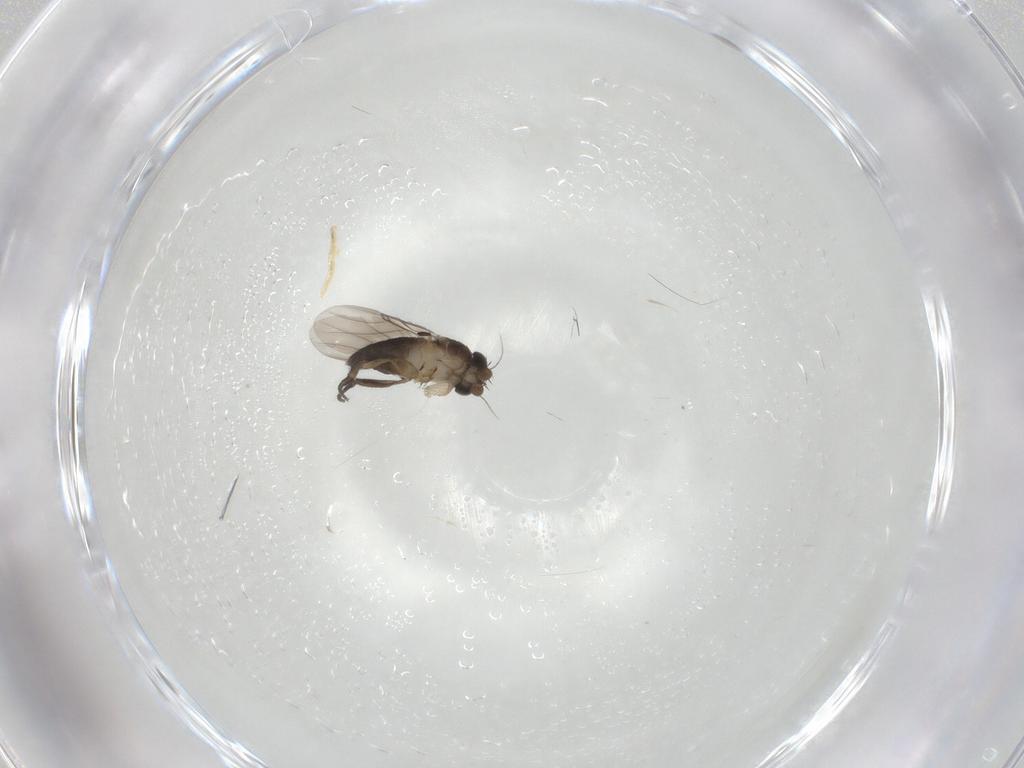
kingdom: Animalia
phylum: Arthropoda
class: Insecta
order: Diptera
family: Phoridae
